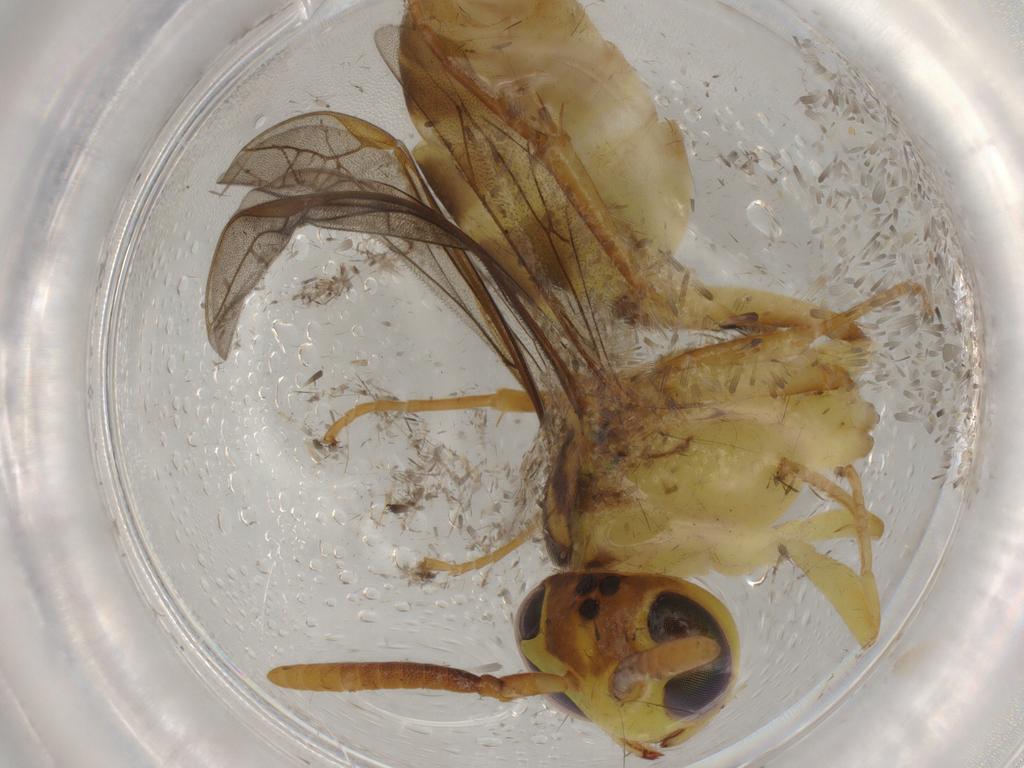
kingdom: Animalia
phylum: Arthropoda
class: Insecta
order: Hymenoptera
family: Vespidae
